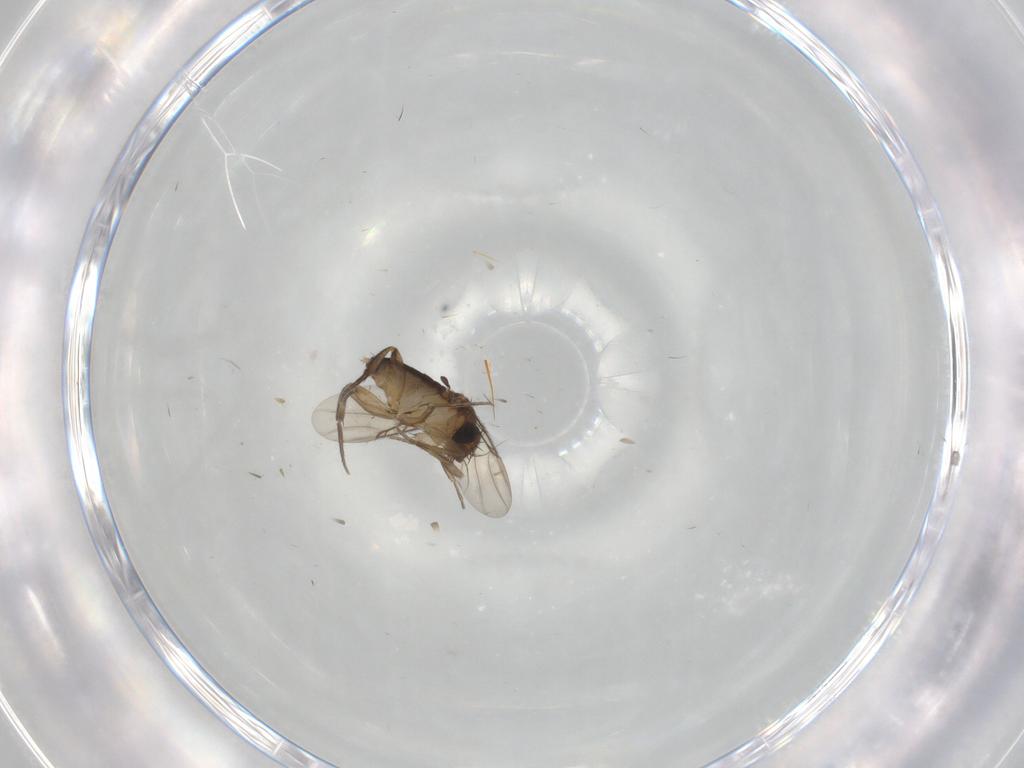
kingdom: Animalia
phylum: Arthropoda
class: Insecta
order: Diptera
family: Phoridae
